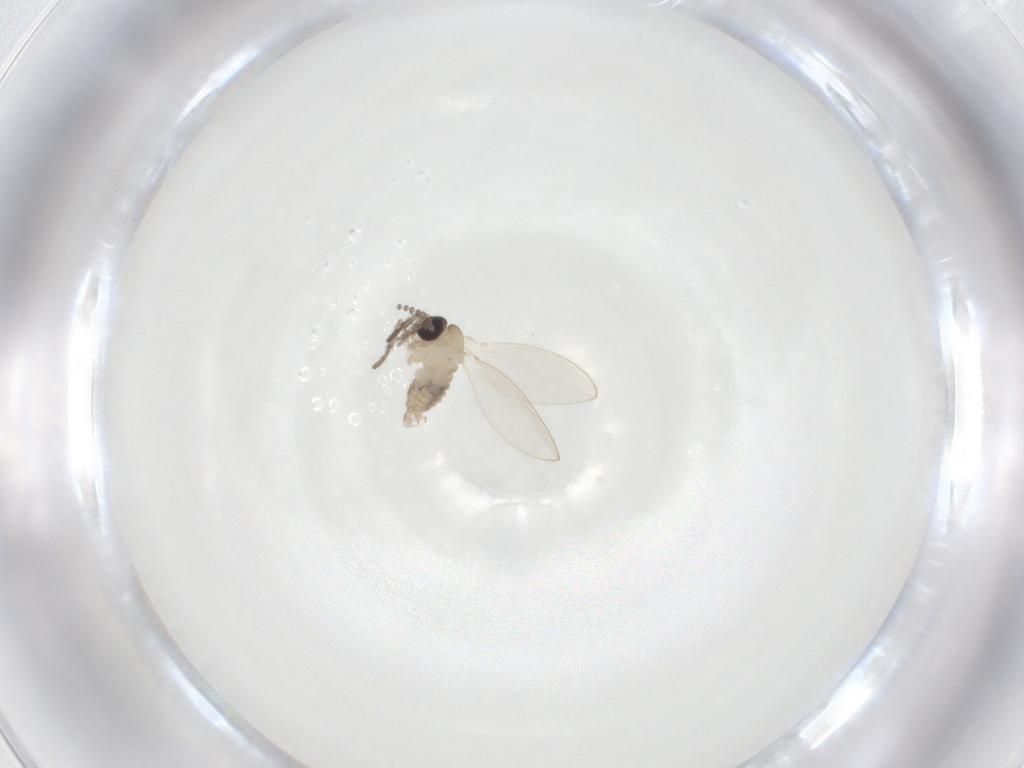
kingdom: Animalia
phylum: Arthropoda
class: Insecta
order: Diptera
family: Psychodidae
